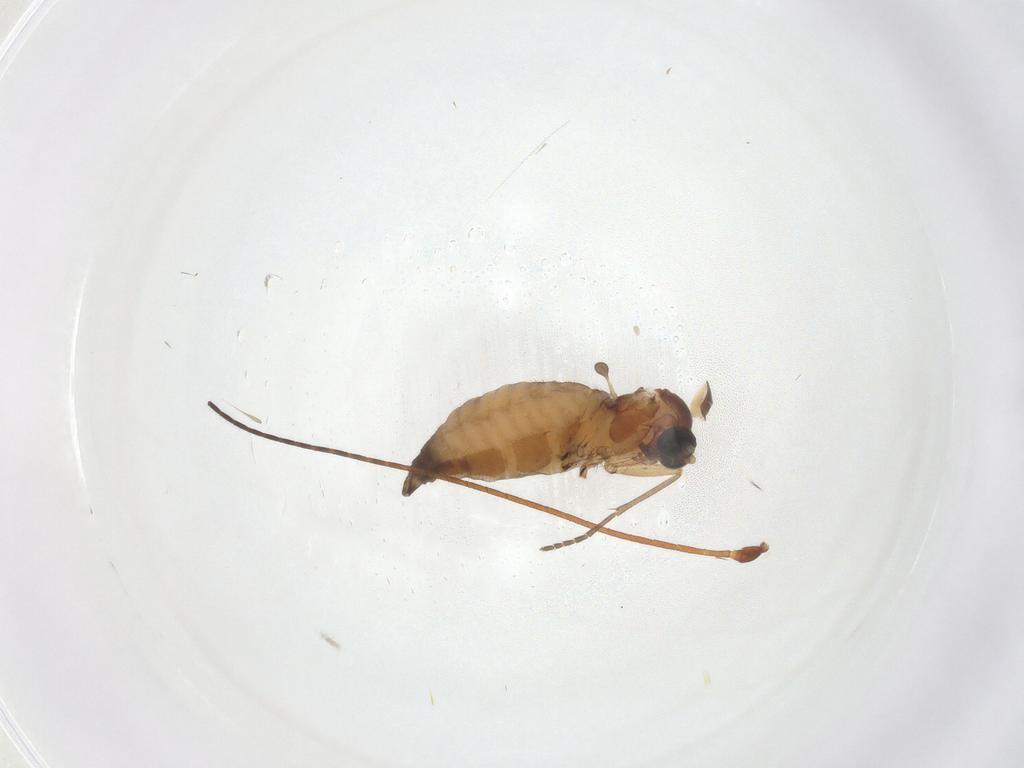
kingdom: Animalia
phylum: Arthropoda
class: Insecta
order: Diptera
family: Sciaridae
